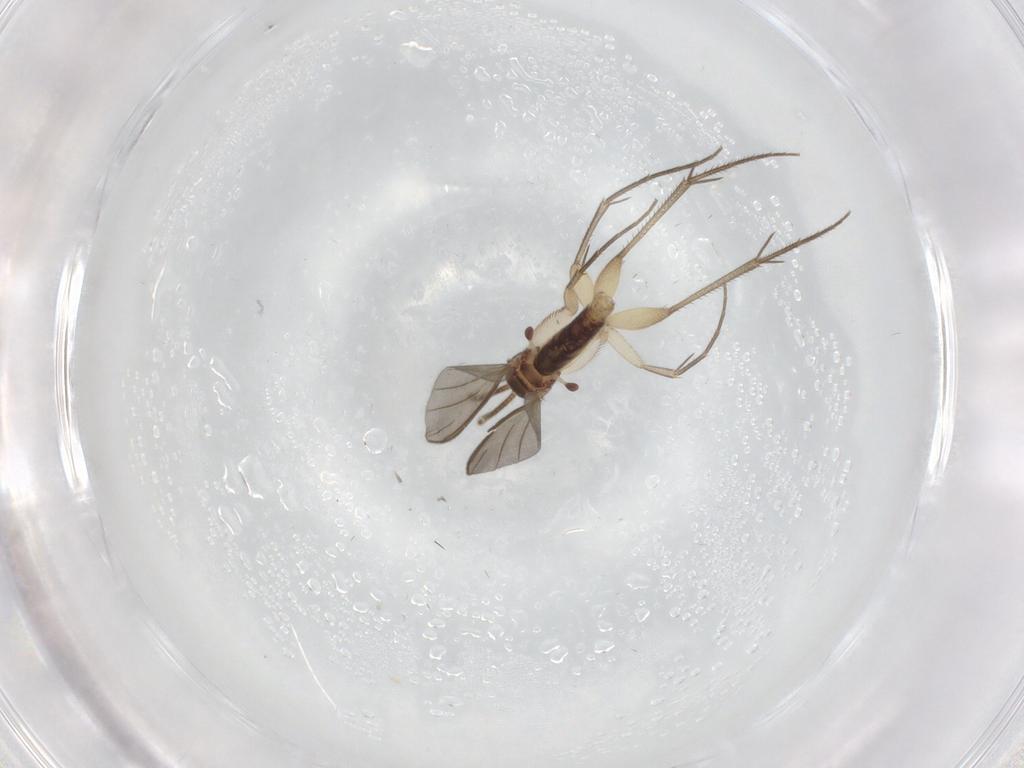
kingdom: Animalia
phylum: Arthropoda
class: Insecta
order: Diptera
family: Mycetophilidae
